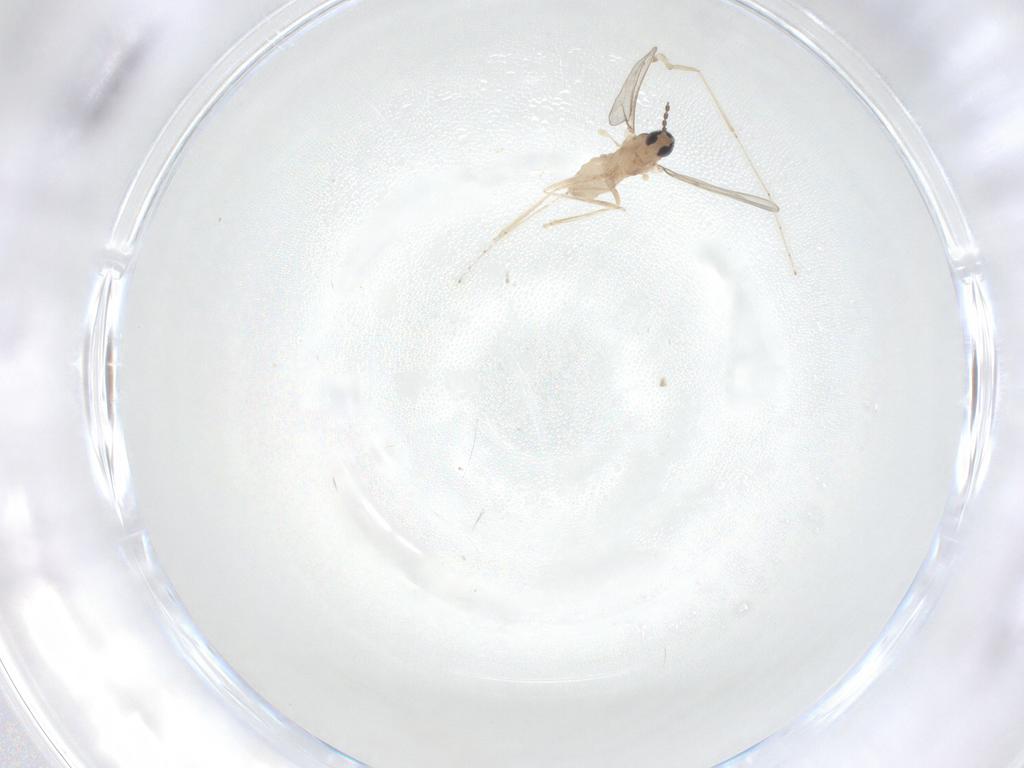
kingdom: Animalia
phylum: Arthropoda
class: Insecta
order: Diptera
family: Cecidomyiidae
